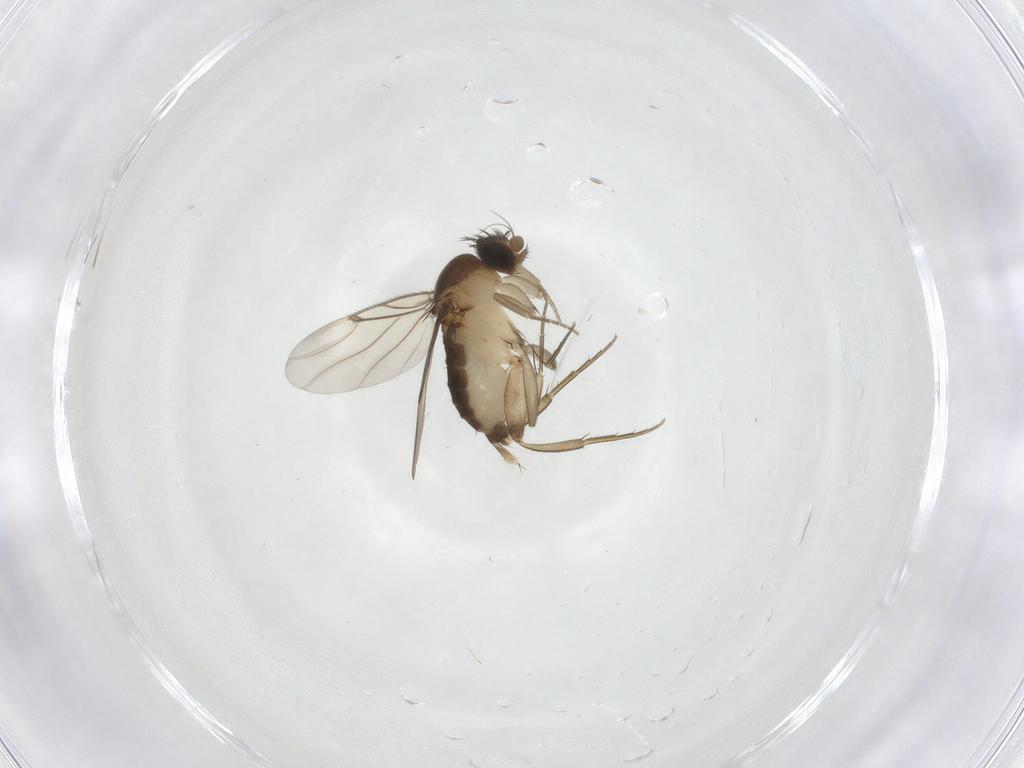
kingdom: Animalia
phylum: Arthropoda
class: Insecta
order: Diptera
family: Phoridae
